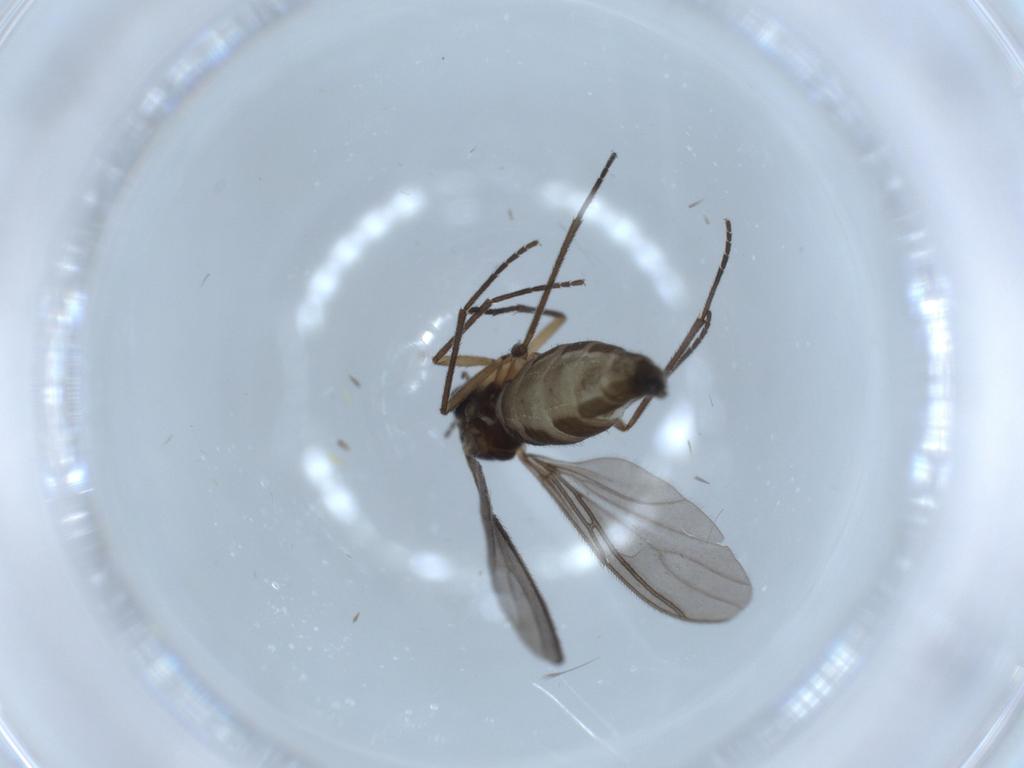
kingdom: Animalia
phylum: Arthropoda
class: Insecta
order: Diptera
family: Sciaridae
